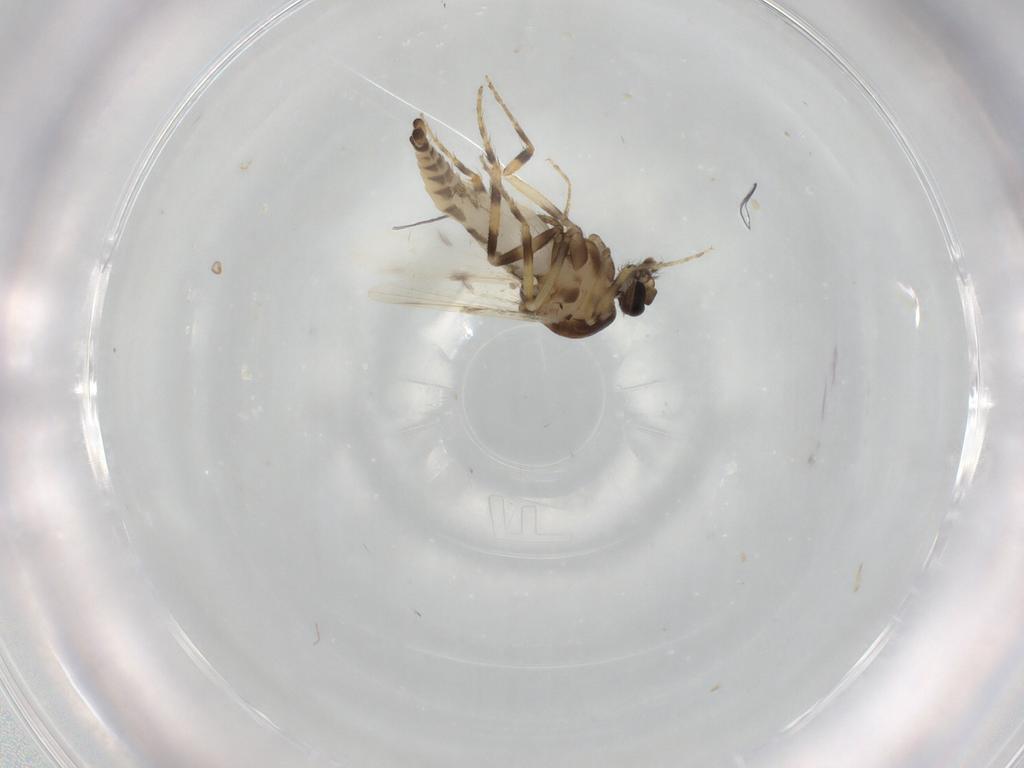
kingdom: Animalia
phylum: Arthropoda
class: Insecta
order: Diptera
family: Ceratopogonidae
